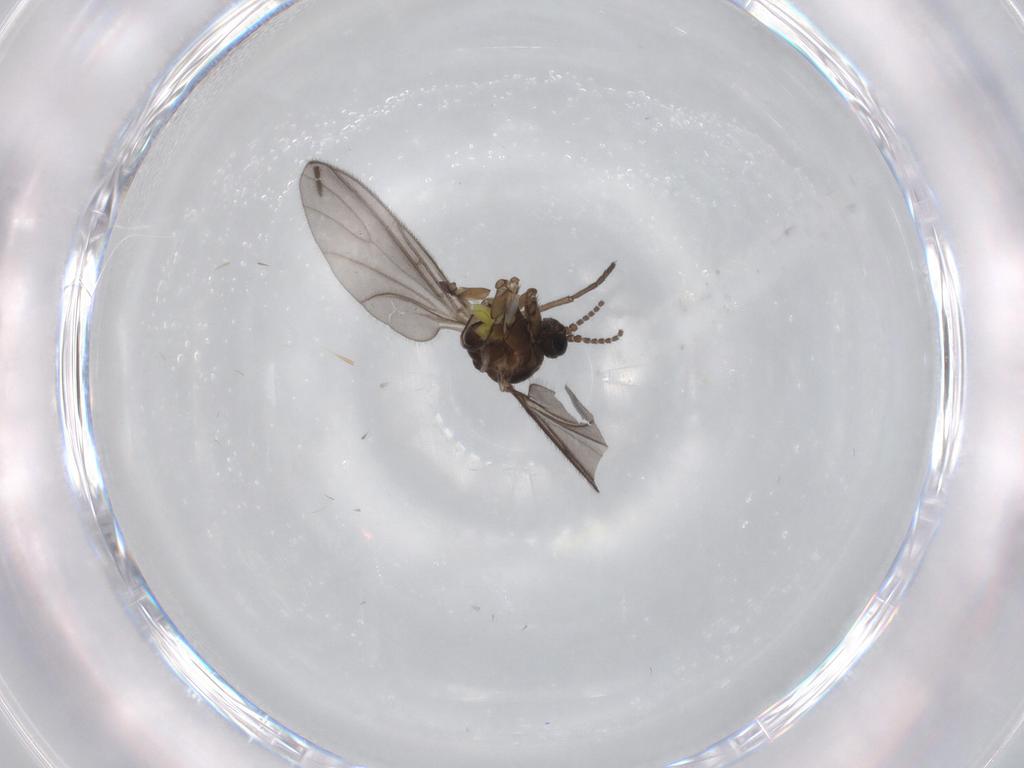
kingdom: Animalia
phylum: Arthropoda
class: Insecta
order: Diptera
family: Sciaridae
